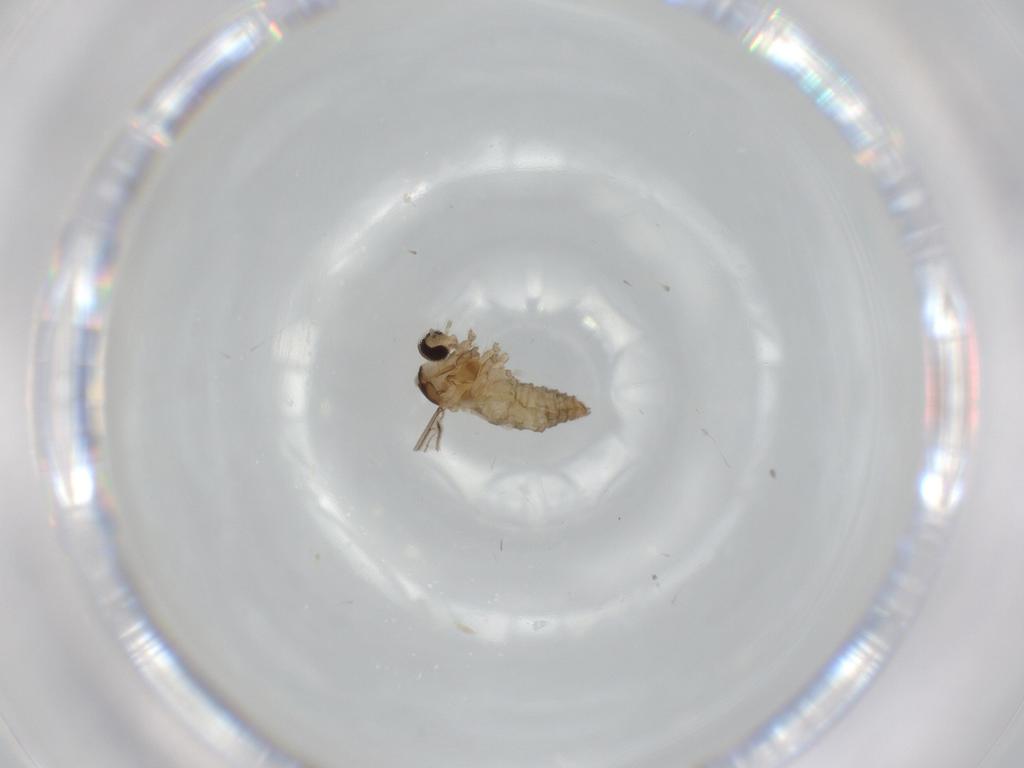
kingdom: Animalia
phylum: Arthropoda
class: Insecta
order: Diptera
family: Cecidomyiidae
